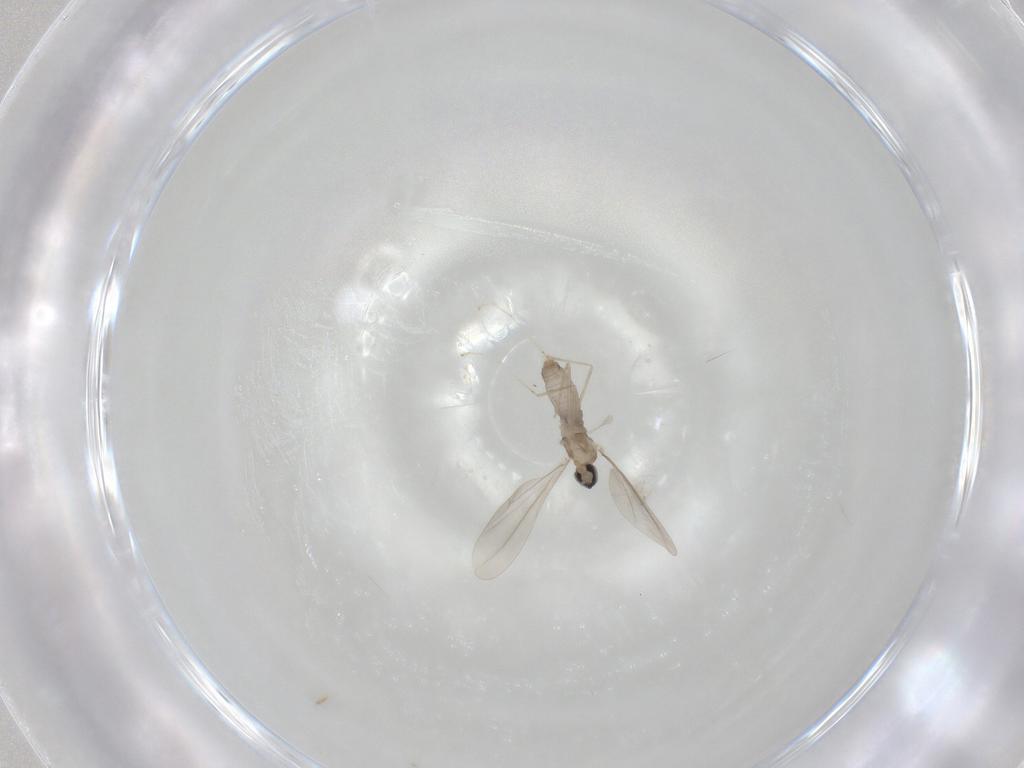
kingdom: Animalia
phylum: Arthropoda
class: Insecta
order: Diptera
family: Cecidomyiidae
